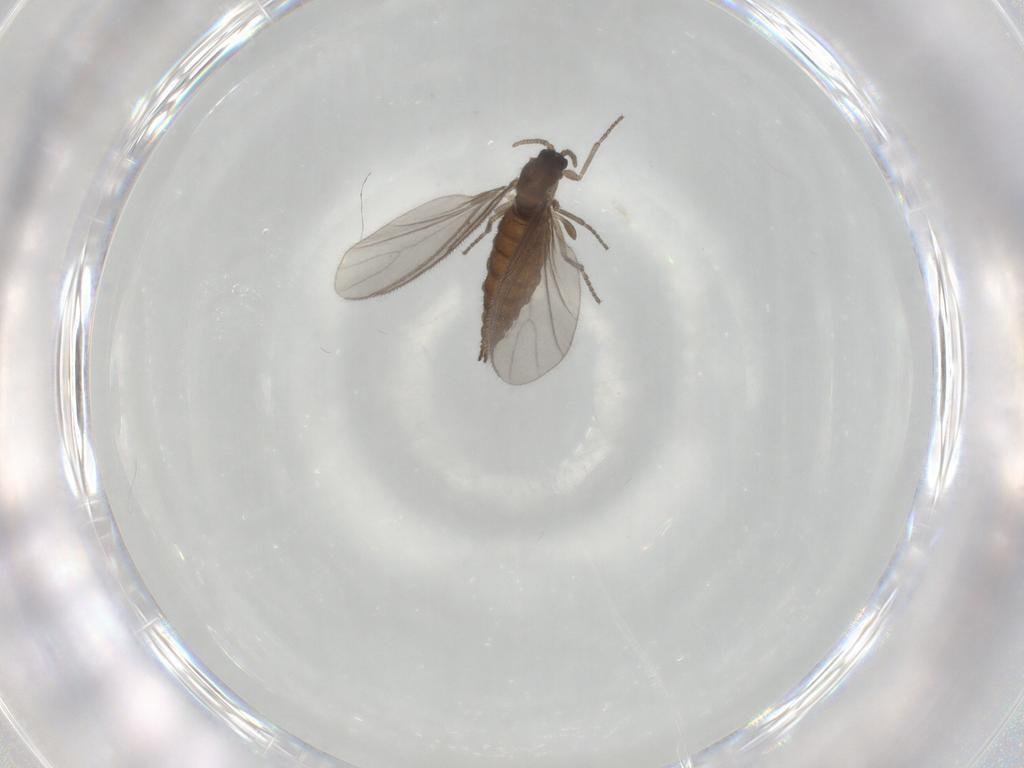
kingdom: Animalia
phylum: Arthropoda
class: Insecta
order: Diptera
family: Sciaridae
